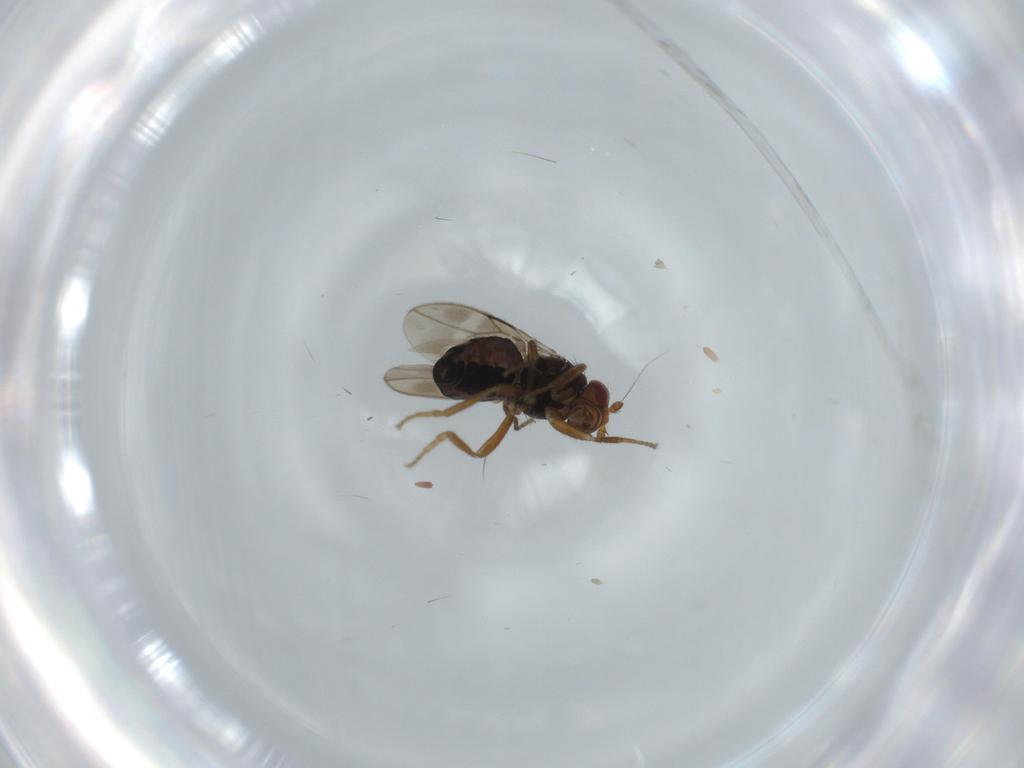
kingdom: Animalia
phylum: Arthropoda
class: Insecta
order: Diptera
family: Sphaeroceridae
